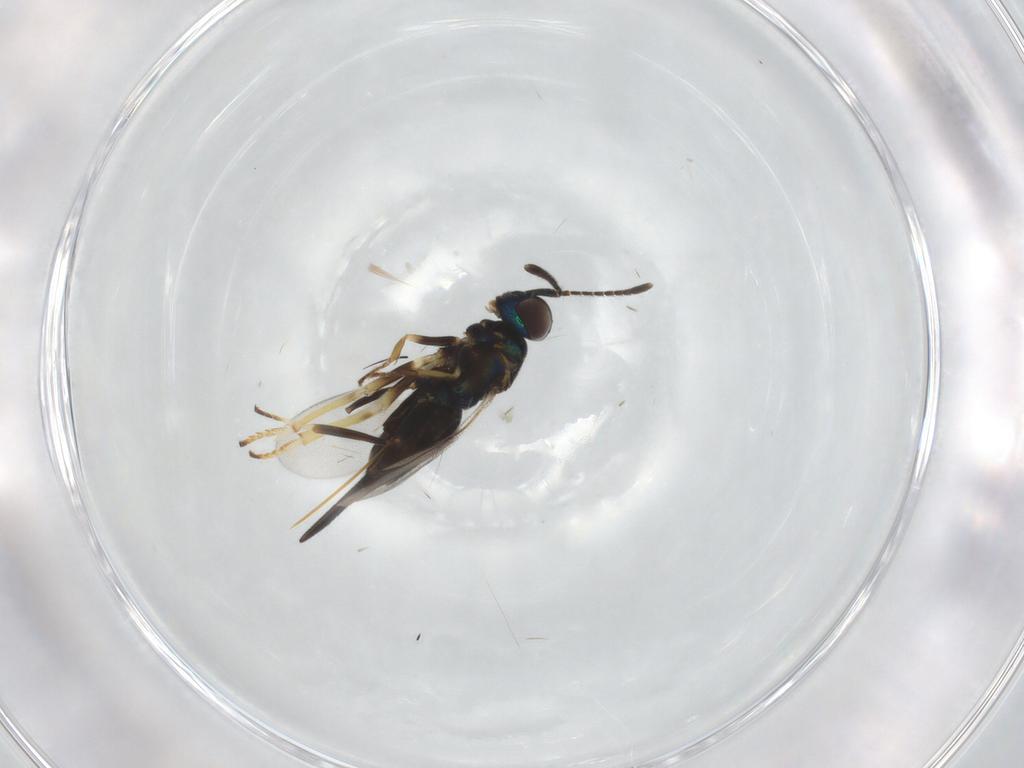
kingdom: Animalia
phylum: Arthropoda
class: Insecta
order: Hymenoptera
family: Encyrtidae
